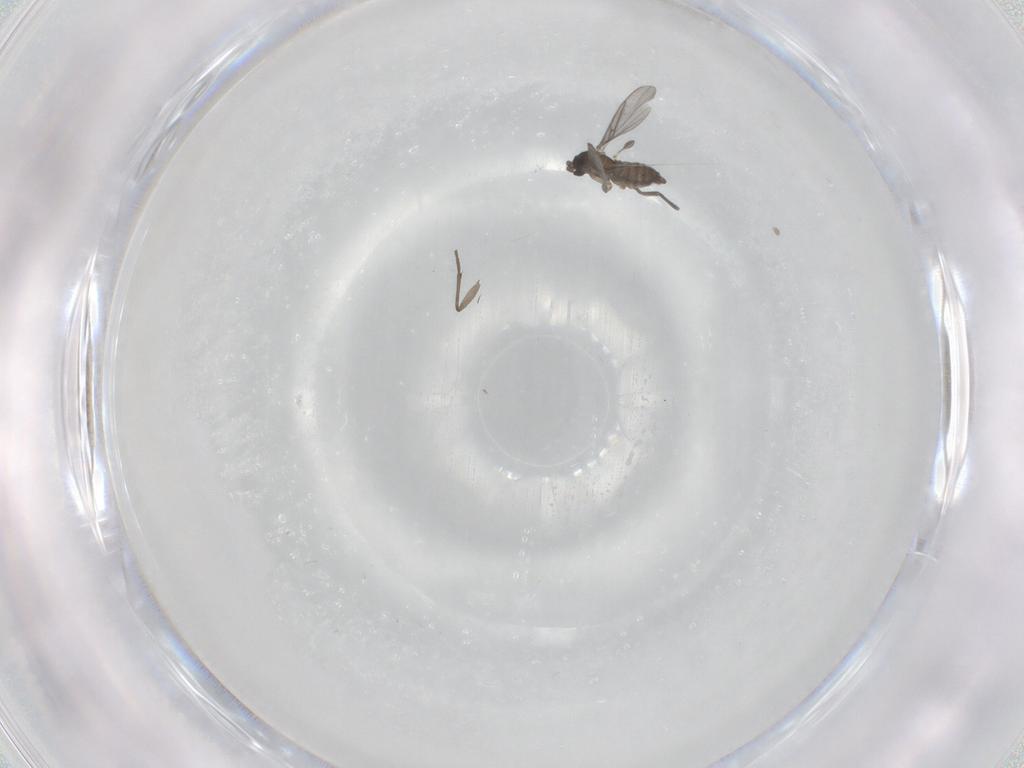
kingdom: Animalia
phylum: Arthropoda
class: Insecta
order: Diptera
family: Sciaridae
